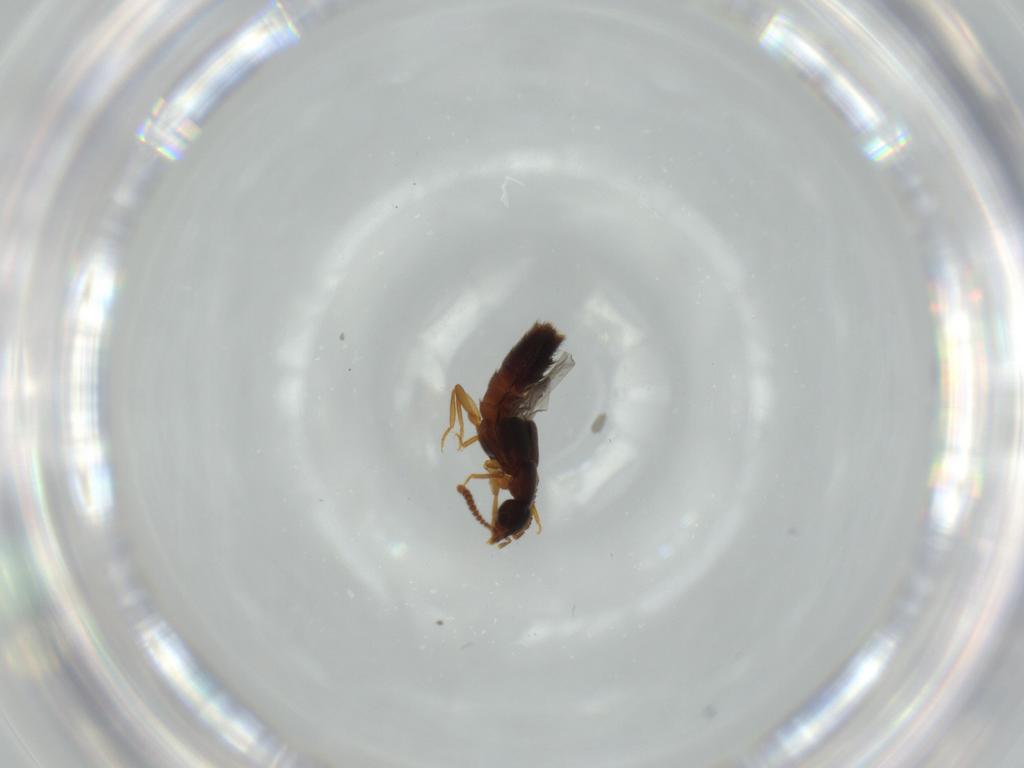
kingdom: Animalia
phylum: Arthropoda
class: Insecta
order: Coleoptera
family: Staphylinidae
